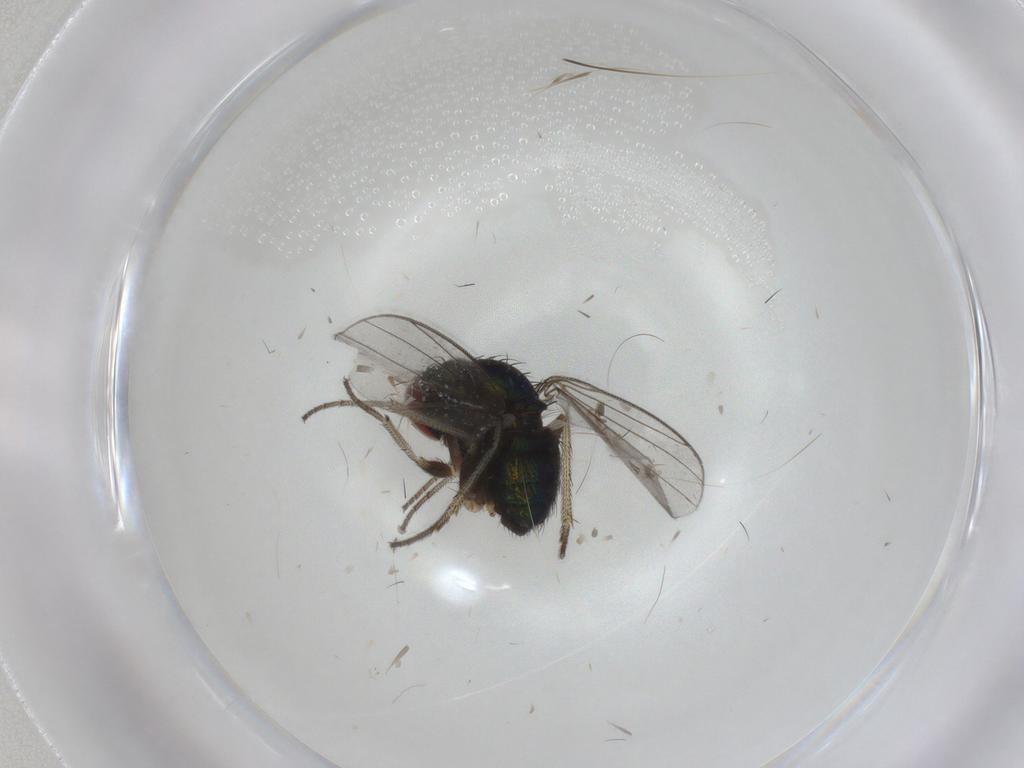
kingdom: Animalia
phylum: Arthropoda
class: Insecta
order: Diptera
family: Dolichopodidae
